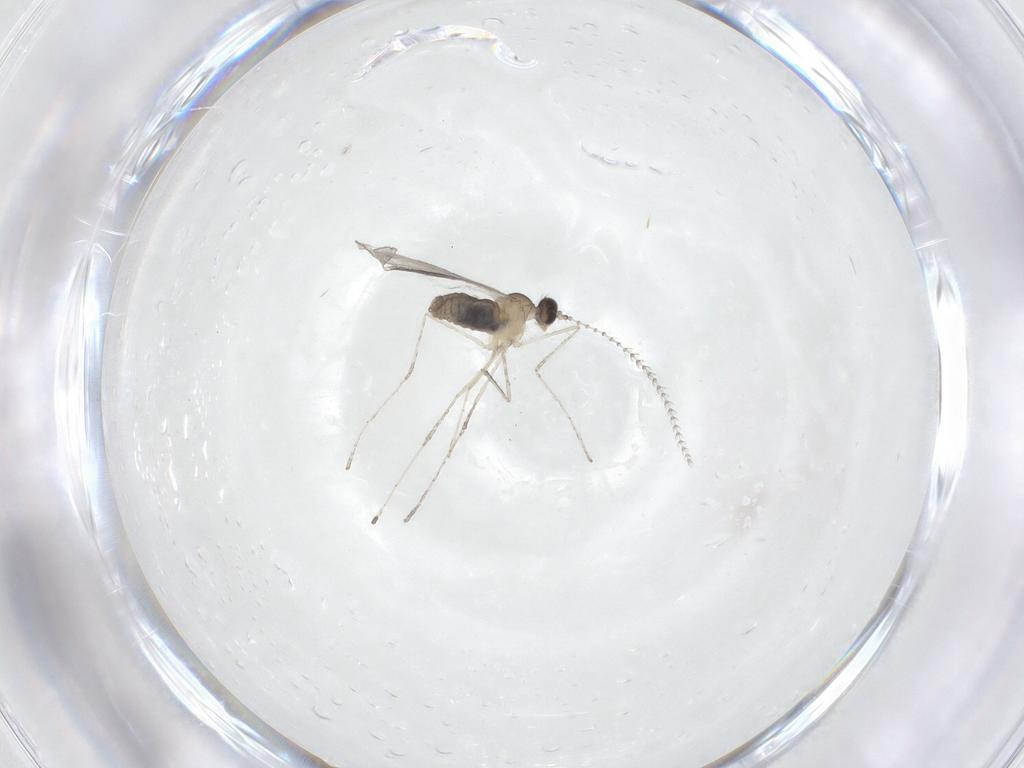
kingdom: Animalia
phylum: Arthropoda
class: Insecta
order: Diptera
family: Cecidomyiidae
